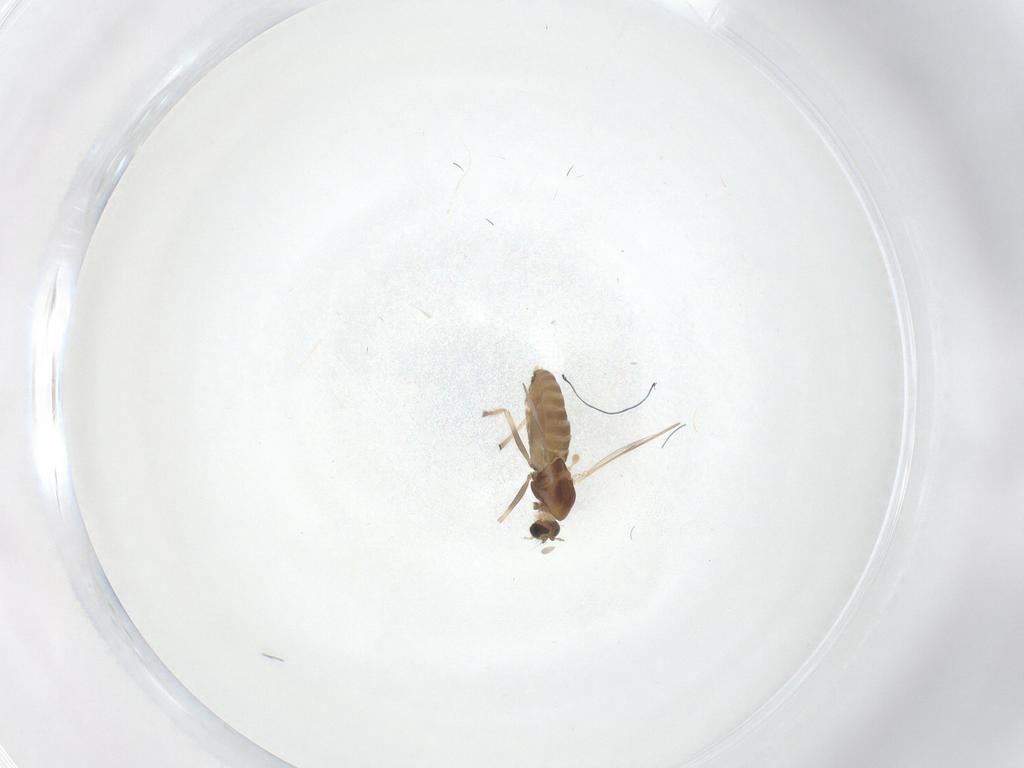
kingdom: Animalia
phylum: Arthropoda
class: Insecta
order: Diptera
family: Chironomidae
